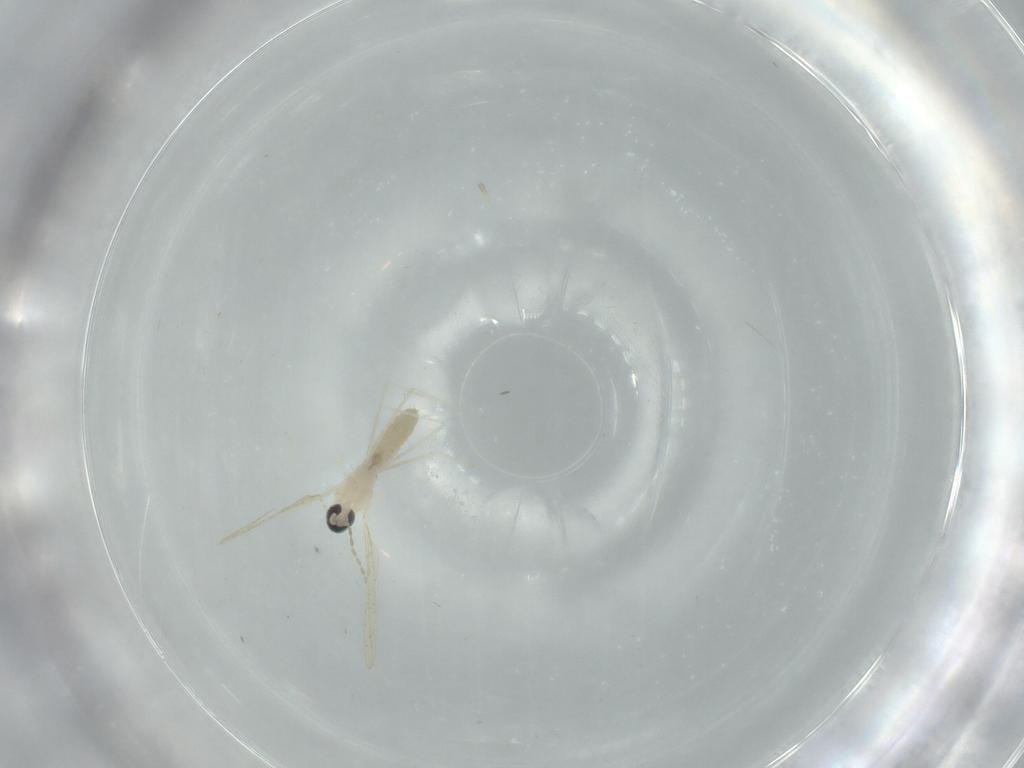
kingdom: Animalia
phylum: Arthropoda
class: Insecta
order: Diptera
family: Cecidomyiidae
